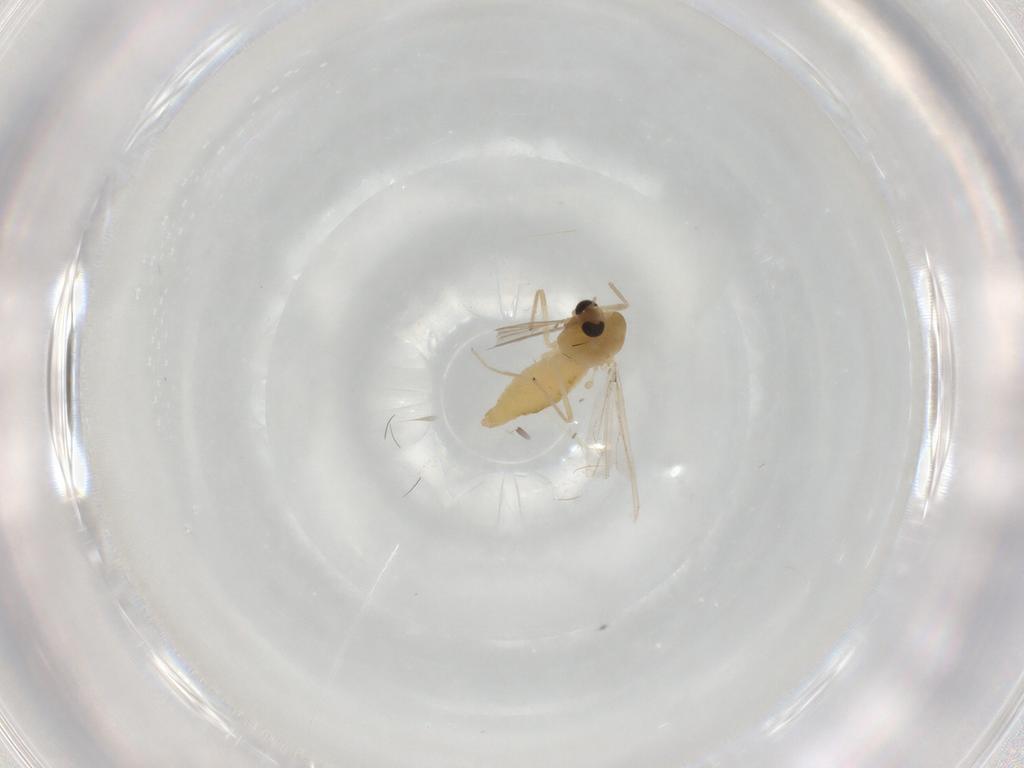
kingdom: Animalia
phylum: Arthropoda
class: Insecta
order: Diptera
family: Chironomidae
